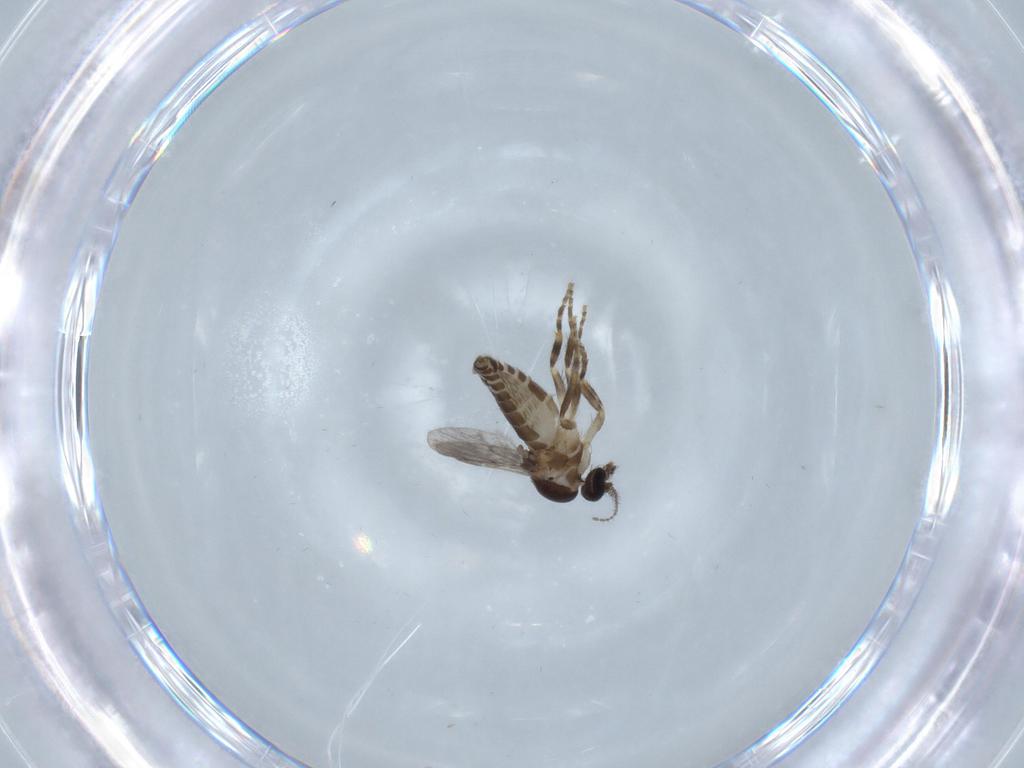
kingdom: Animalia
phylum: Arthropoda
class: Insecta
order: Diptera
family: Ceratopogonidae
